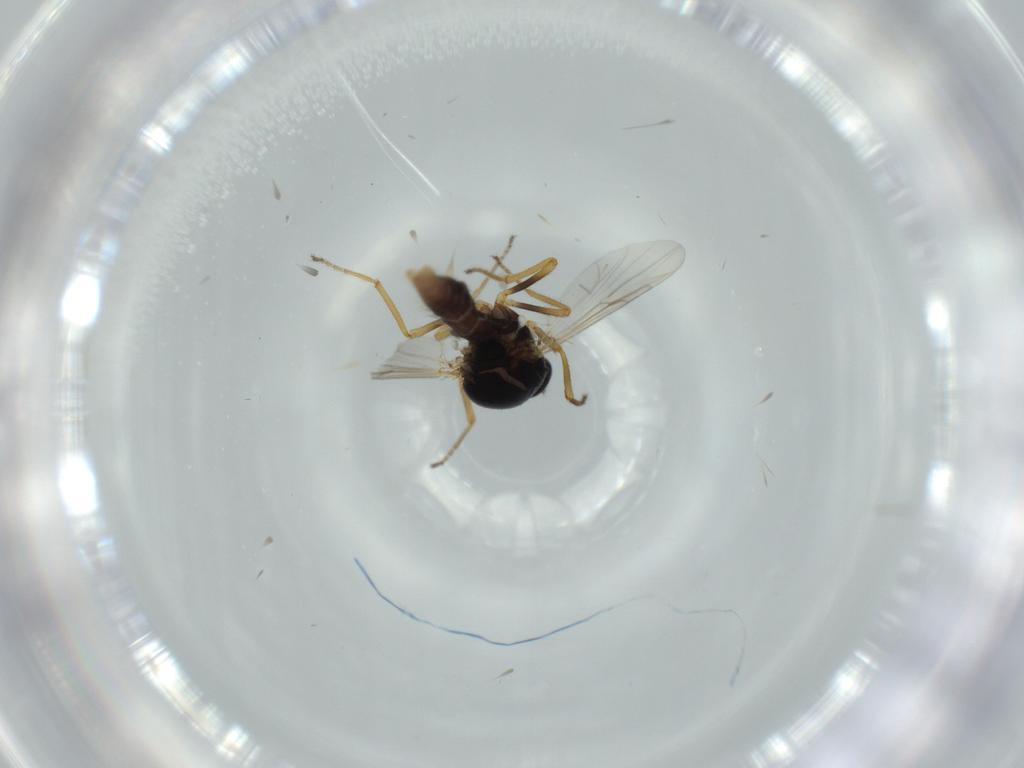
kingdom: Animalia
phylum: Arthropoda
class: Insecta
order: Diptera
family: Ceratopogonidae
